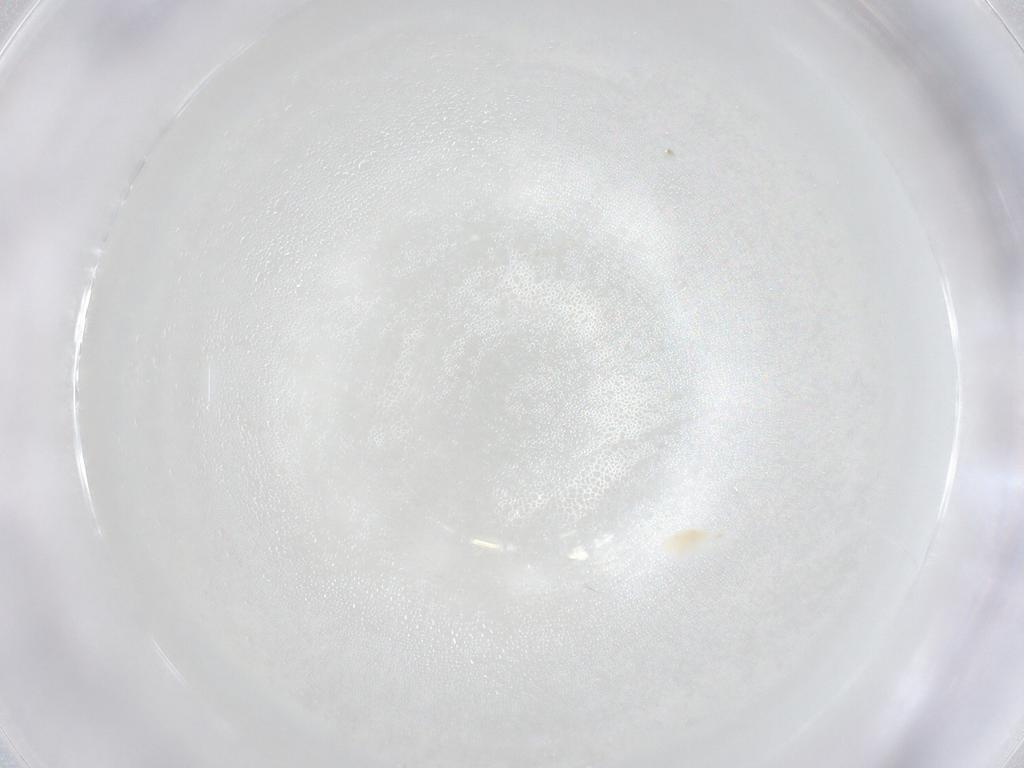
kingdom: Animalia
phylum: Arthropoda
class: Arachnida
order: Trombidiformes
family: Eupodidae
